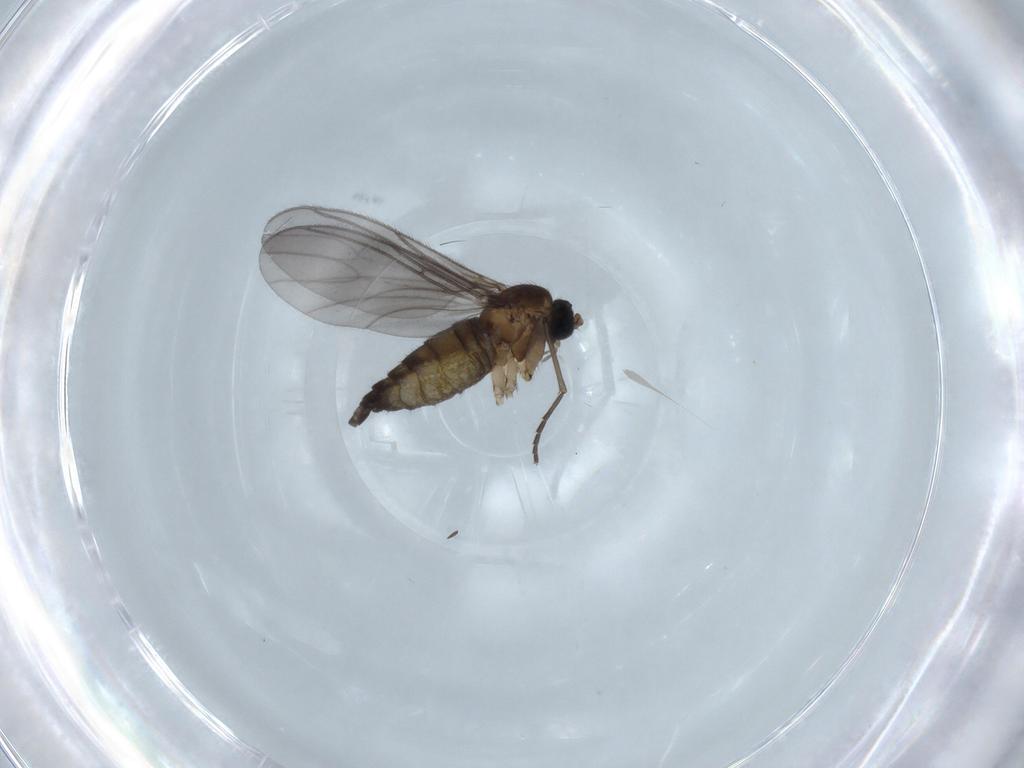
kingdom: Animalia
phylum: Arthropoda
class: Insecta
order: Diptera
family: Sciaridae
